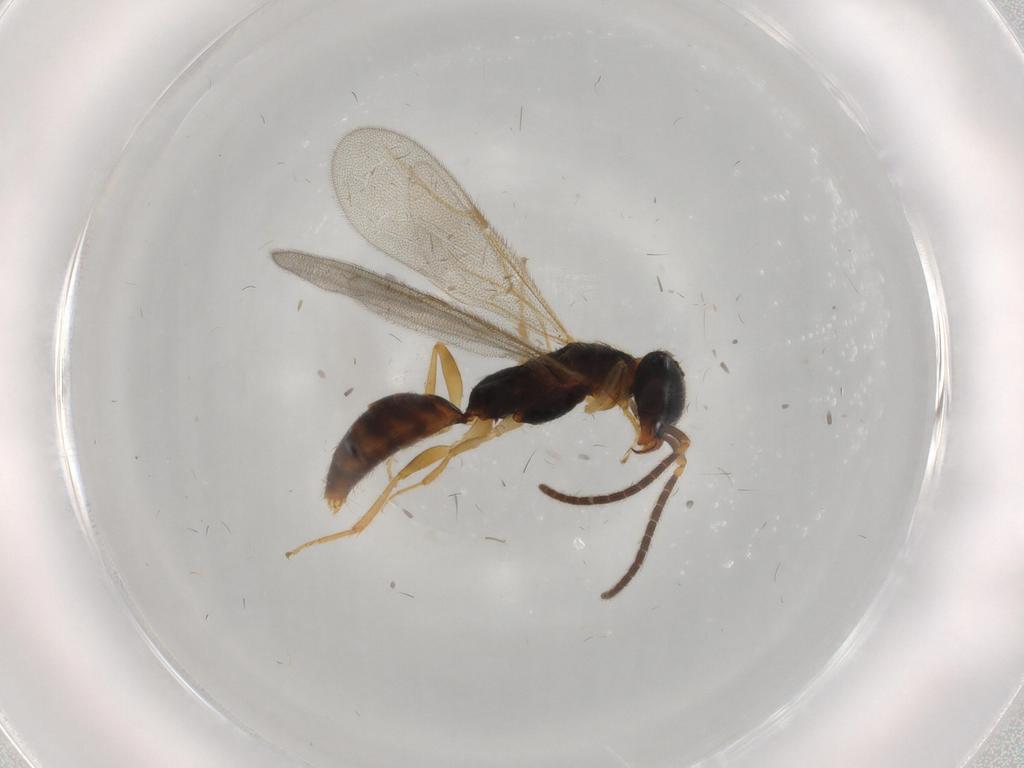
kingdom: Animalia
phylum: Arthropoda
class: Insecta
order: Hymenoptera
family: Bethylidae
